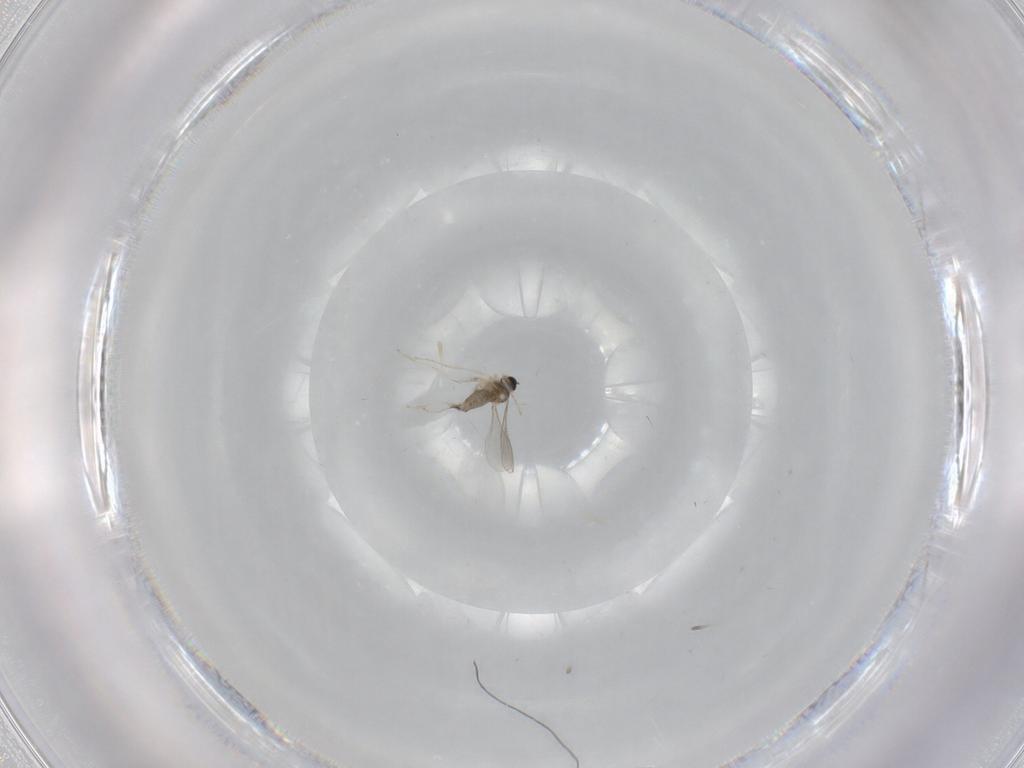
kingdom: Animalia
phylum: Arthropoda
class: Insecta
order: Diptera
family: Cecidomyiidae
